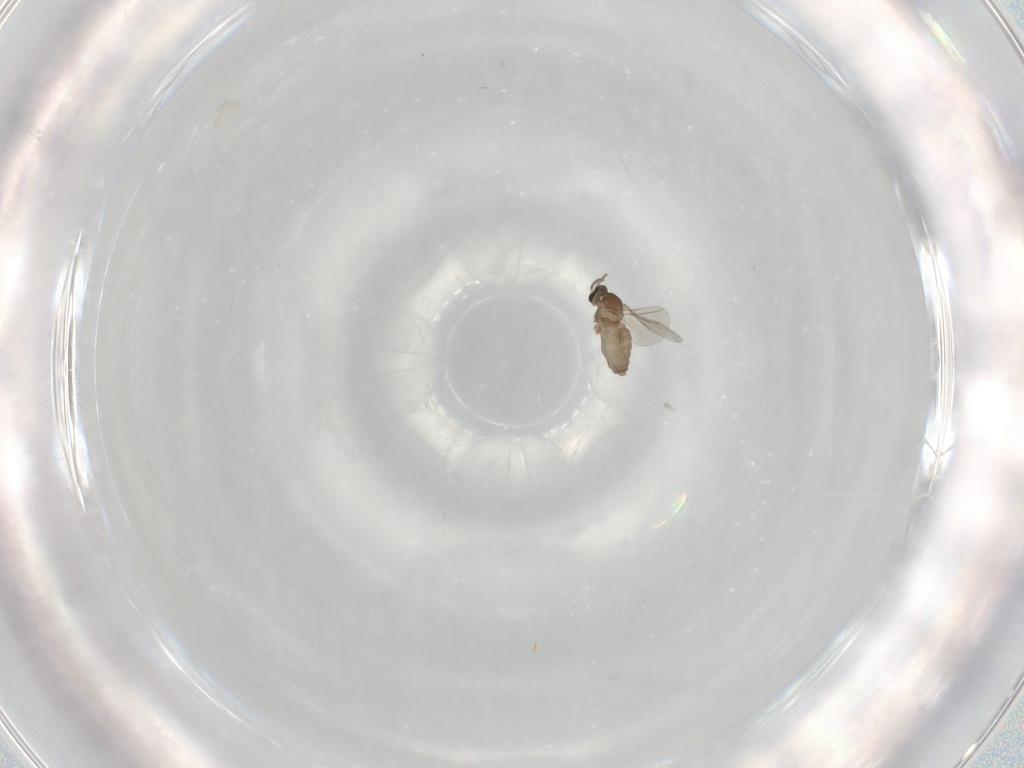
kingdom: Animalia
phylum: Arthropoda
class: Insecta
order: Diptera
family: Cecidomyiidae
